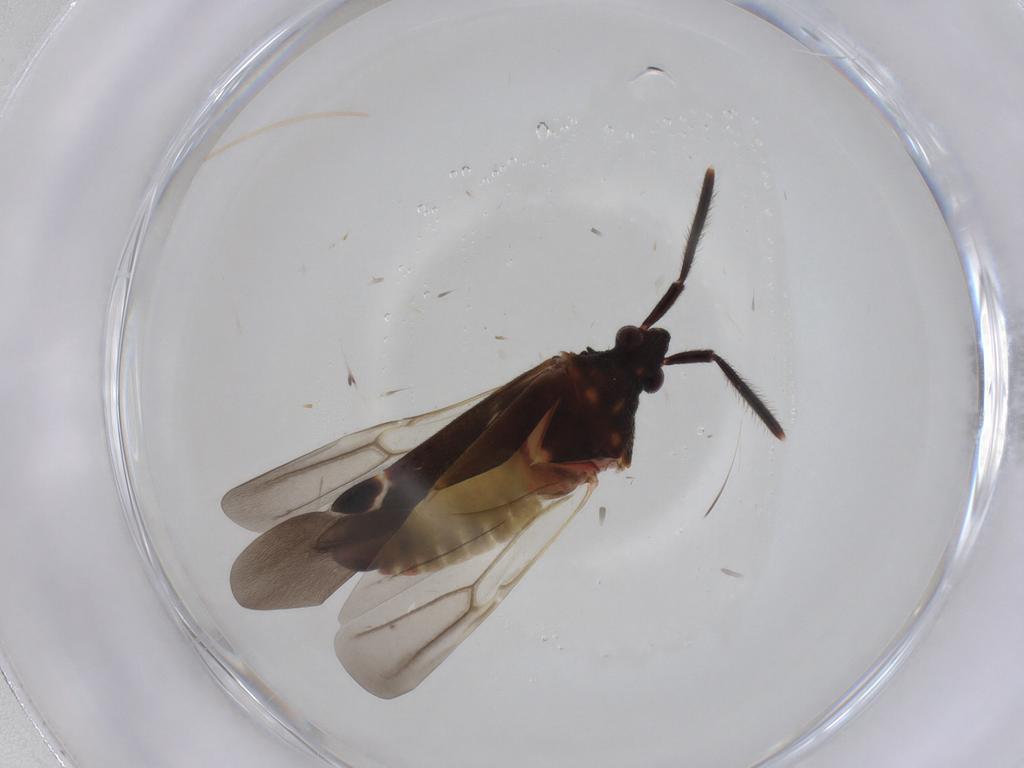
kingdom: Animalia
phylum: Arthropoda
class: Insecta
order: Hemiptera
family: Miridae
